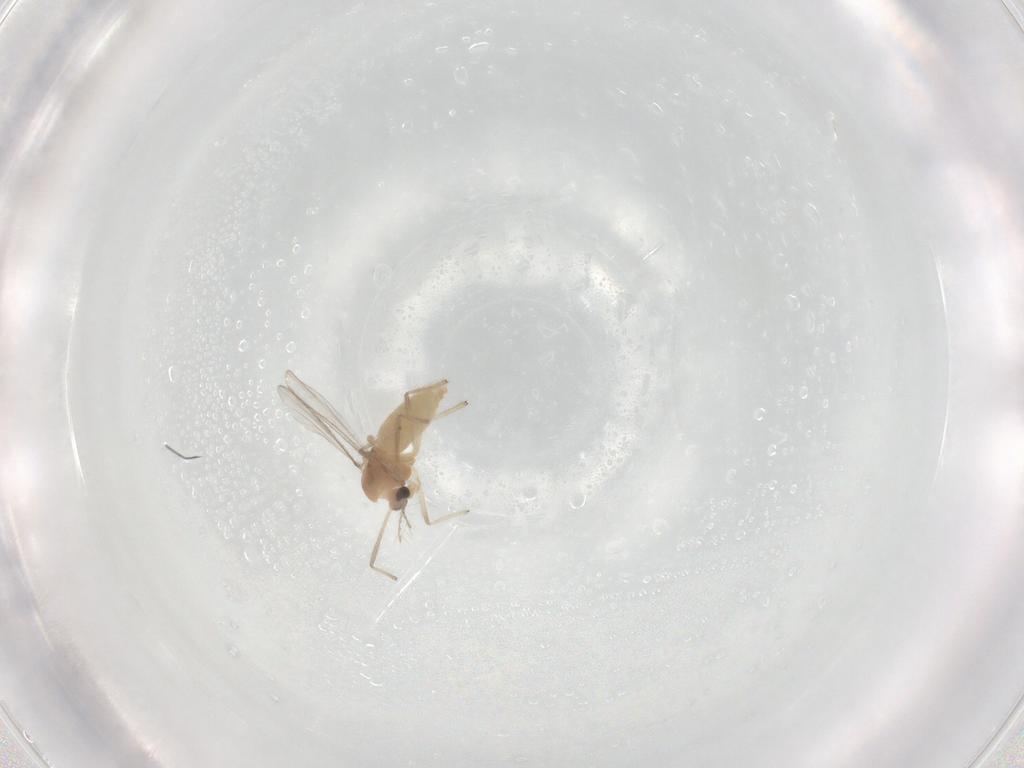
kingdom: Animalia
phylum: Arthropoda
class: Insecta
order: Diptera
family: Chironomidae
